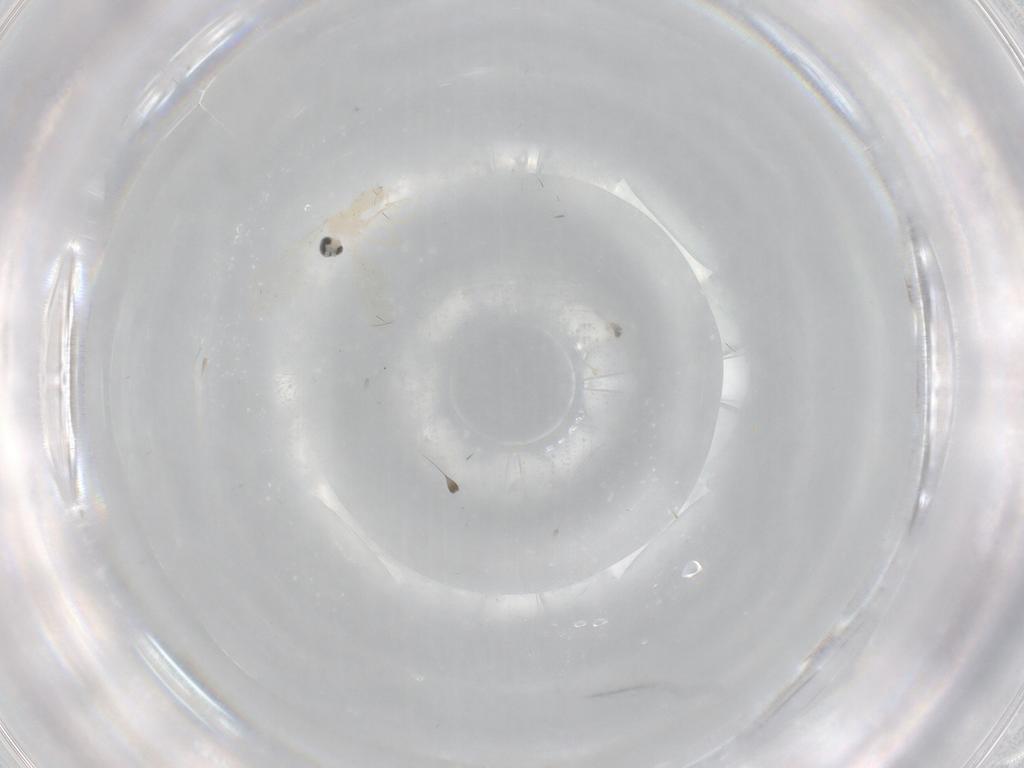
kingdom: Animalia
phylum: Arthropoda
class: Insecta
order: Diptera
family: Cecidomyiidae
